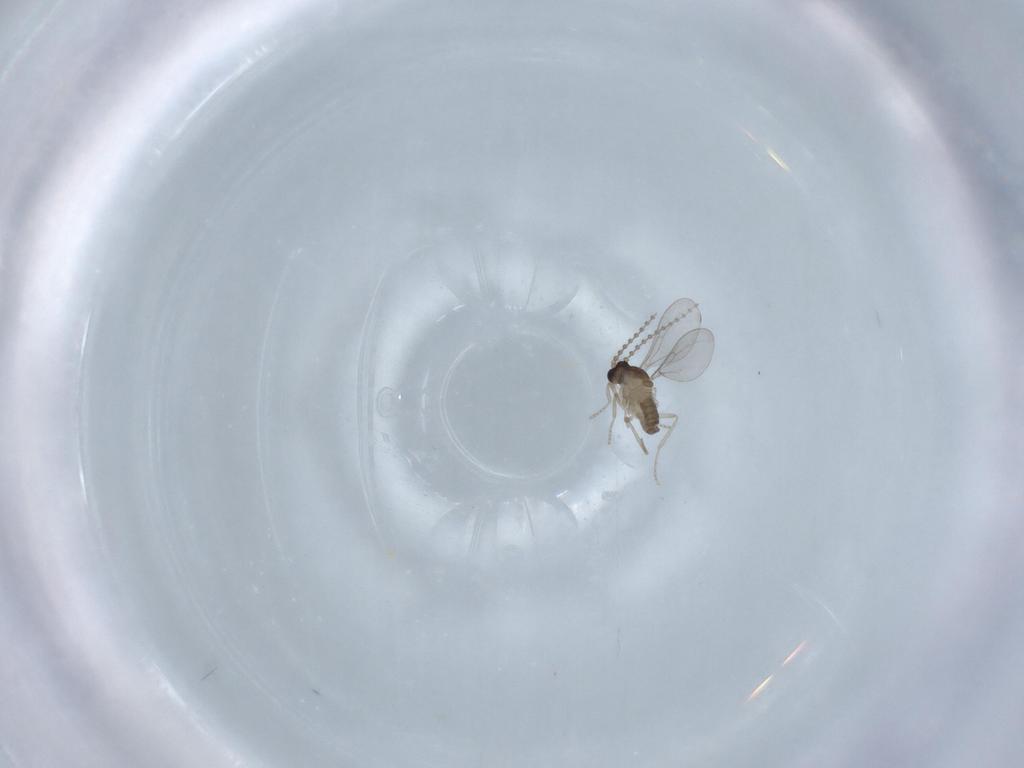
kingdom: Animalia
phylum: Arthropoda
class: Insecta
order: Diptera
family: Cecidomyiidae
